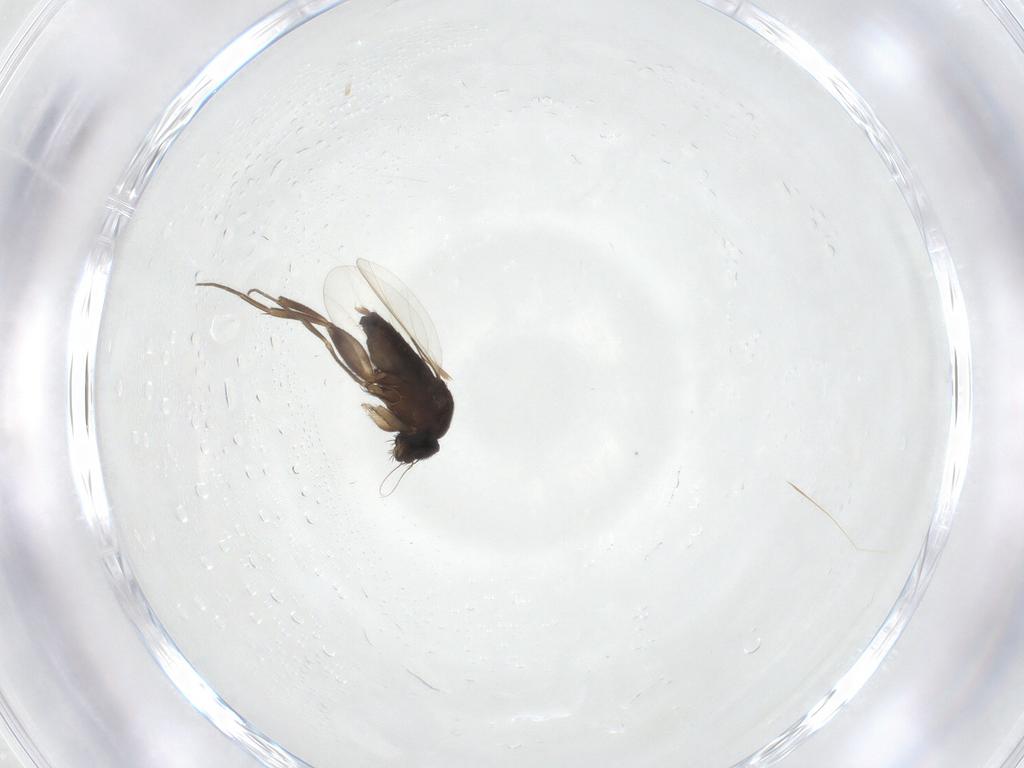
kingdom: Animalia
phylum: Arthropoda
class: Insecta
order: Diptera
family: Phoridae
